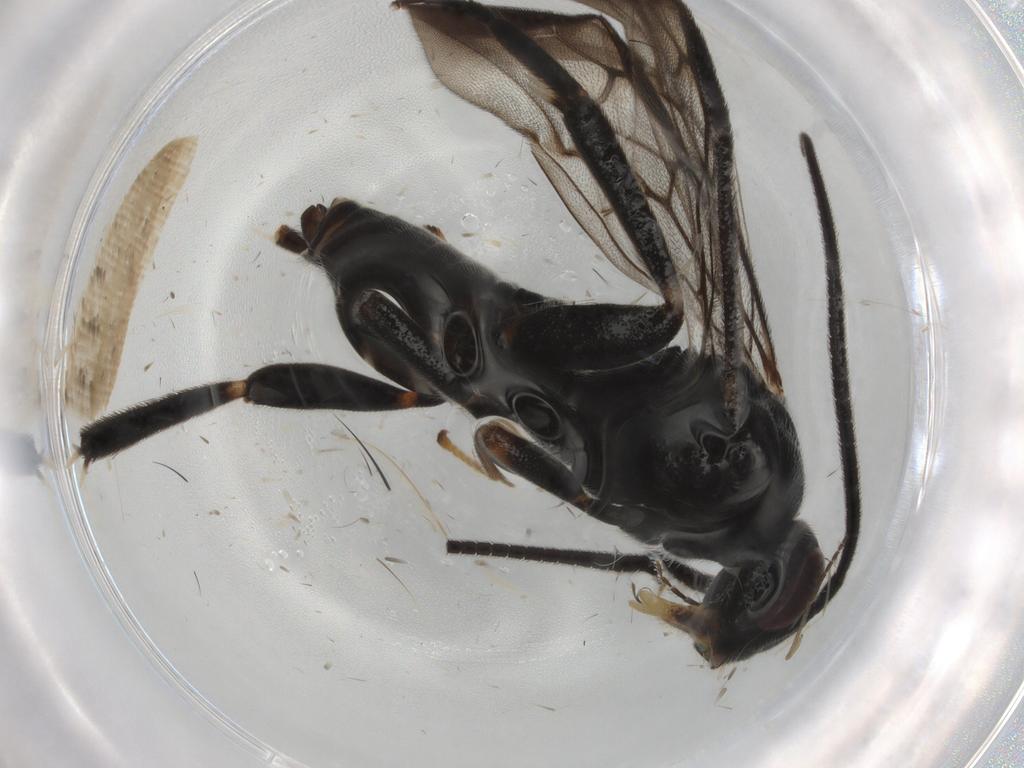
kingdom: Animalia
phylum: Arthropoda
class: Insecta
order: Hymenoptera
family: Braconidae
